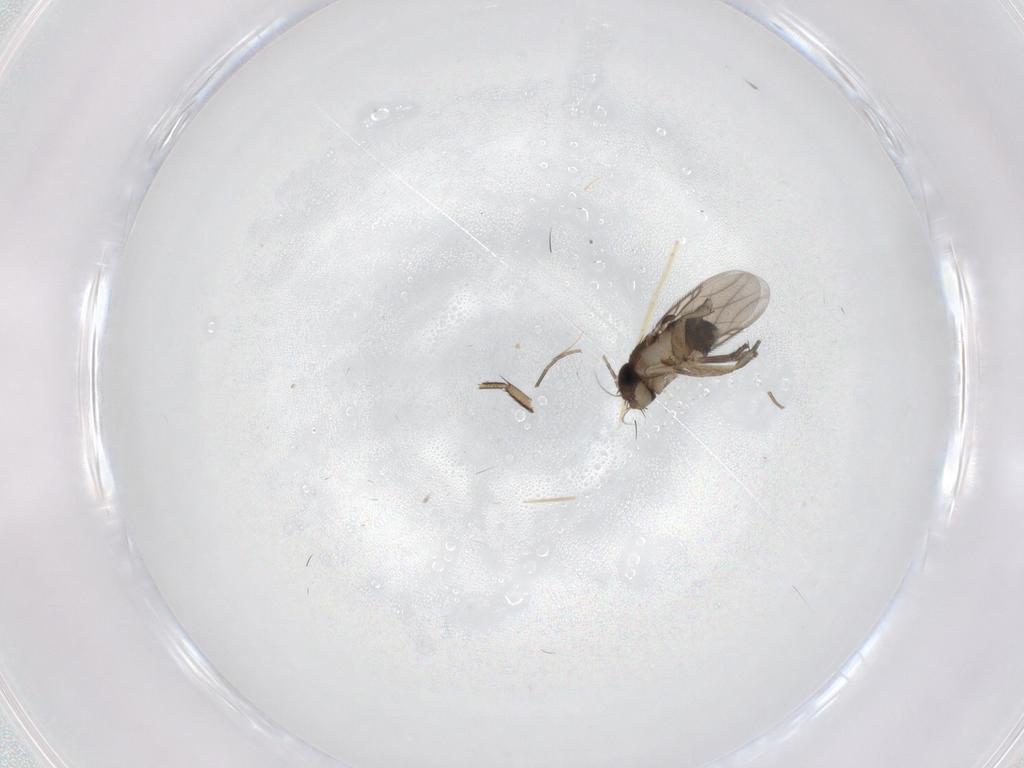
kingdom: Animalia
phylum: Arthropoda
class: Insecta
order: Diptera
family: Phoridae
